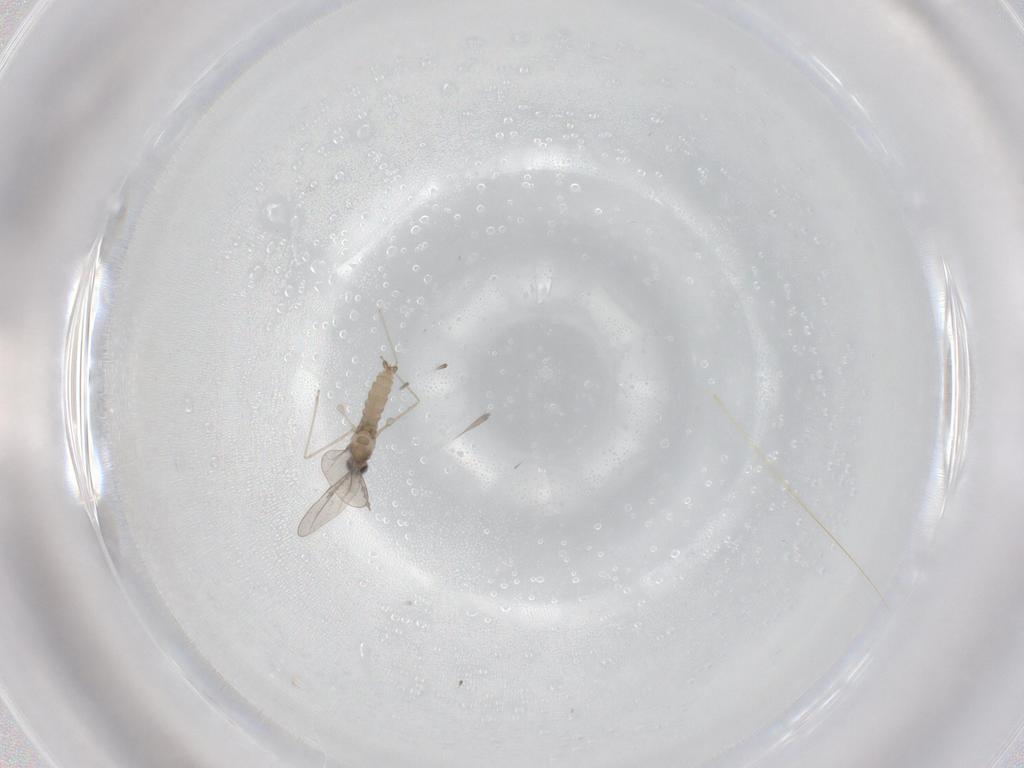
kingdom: Animalia
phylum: Arthropoda
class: Insecta
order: Diptera
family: Cecidomyiidae
